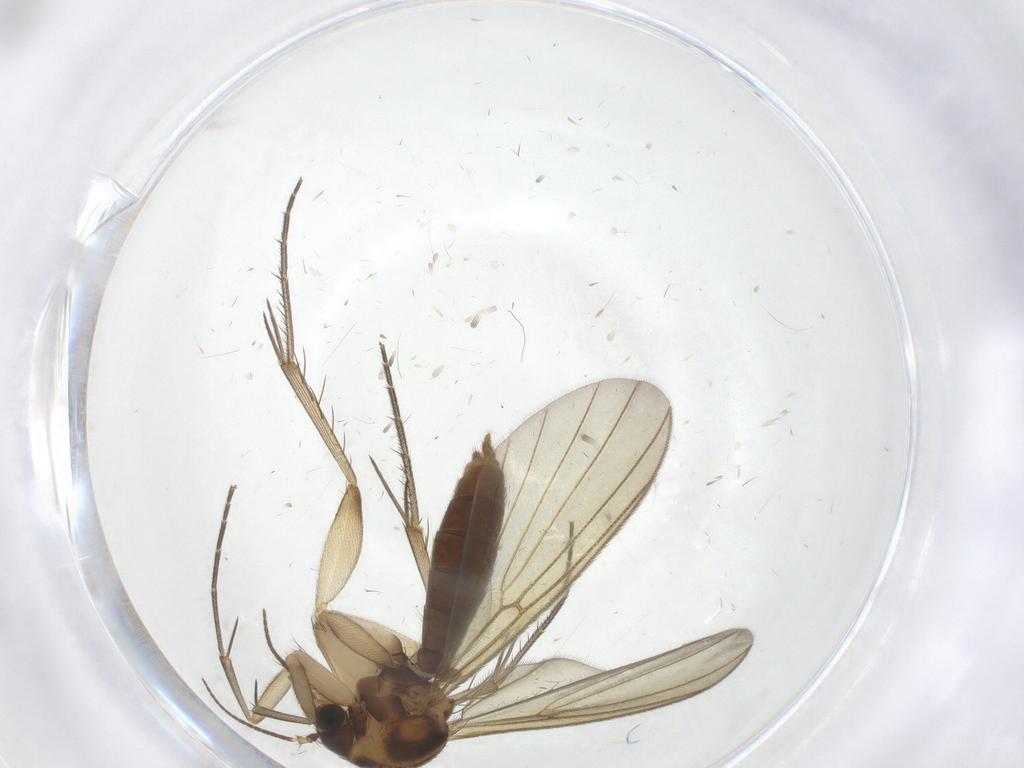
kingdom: Animalia
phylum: Arthropoda
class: Insecta
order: Diptera
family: Mycetophilidae
